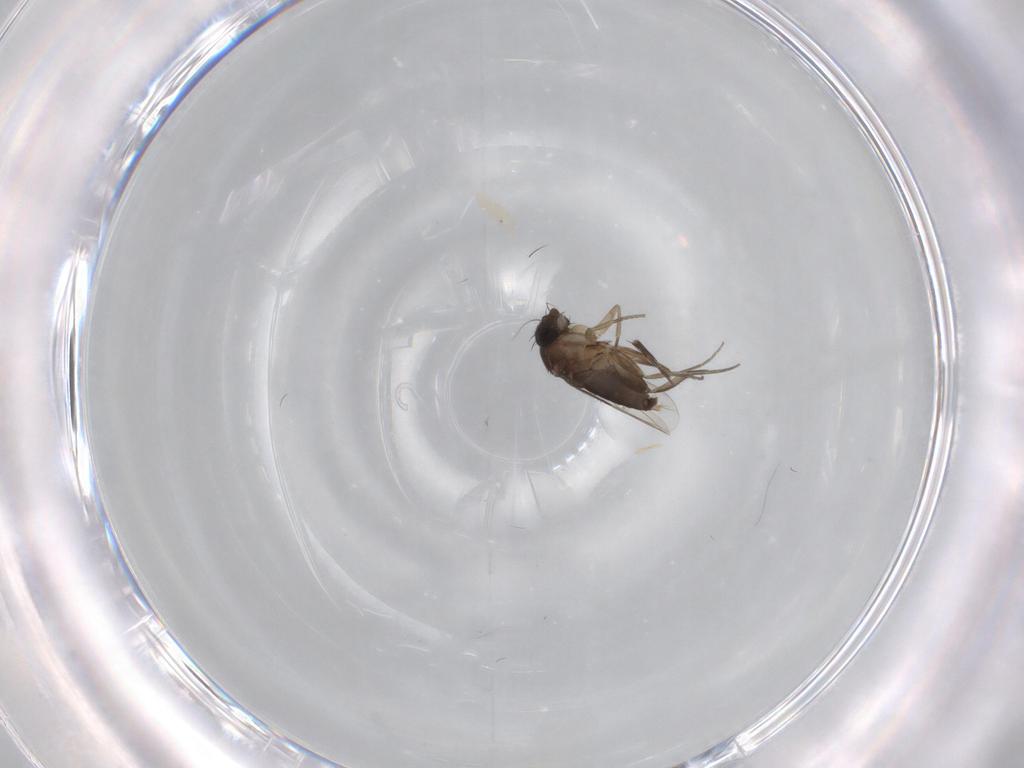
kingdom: Animalia
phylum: Arthropoda
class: Insecta
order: Diptera
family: Phoridae
